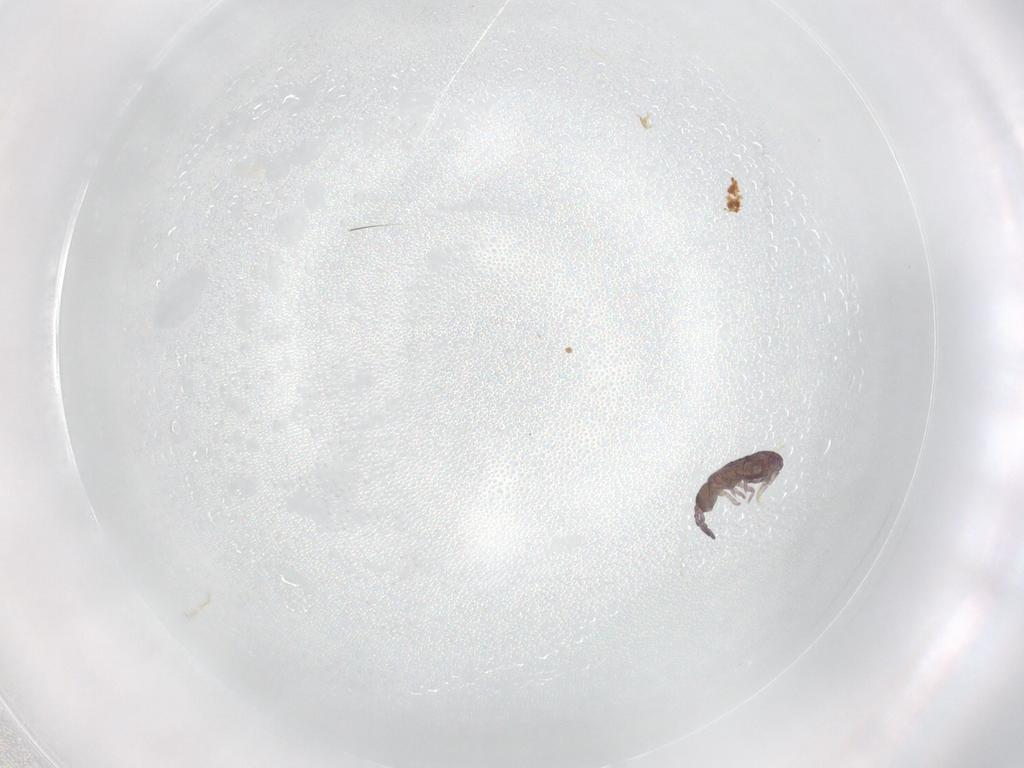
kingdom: Animalia
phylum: Arthropoda
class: Collembola
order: Entomobryomorpha
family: Isotomidae
